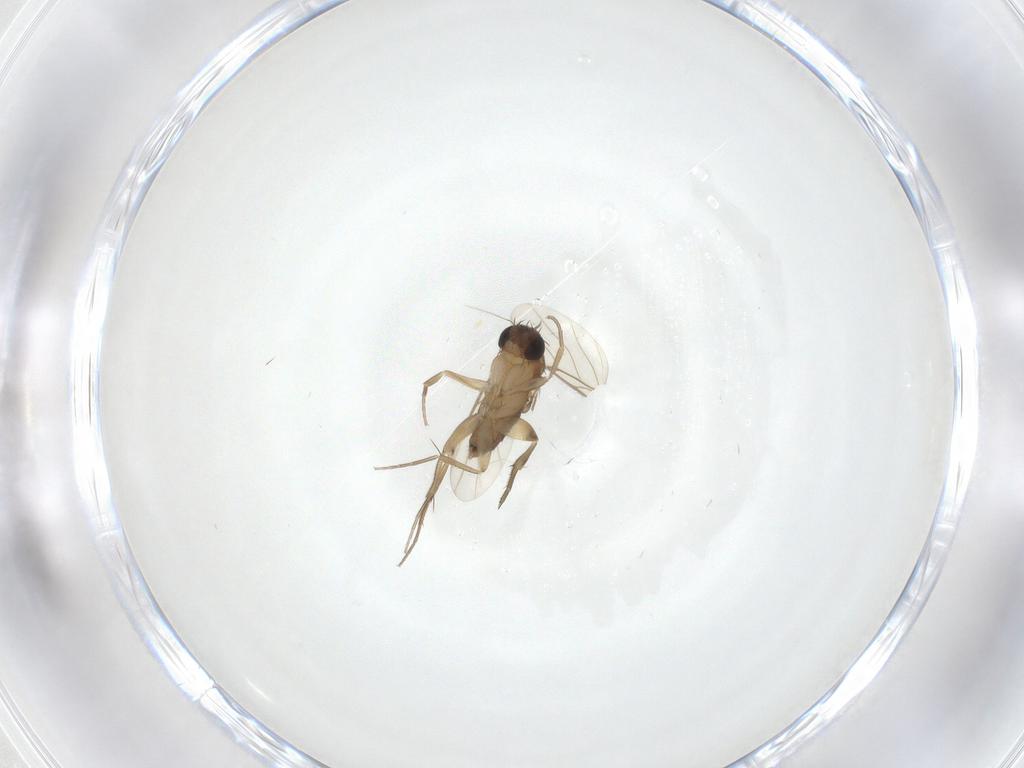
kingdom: Animalia
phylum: Arthropoda
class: Insecta
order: Diptera
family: Phoridae
